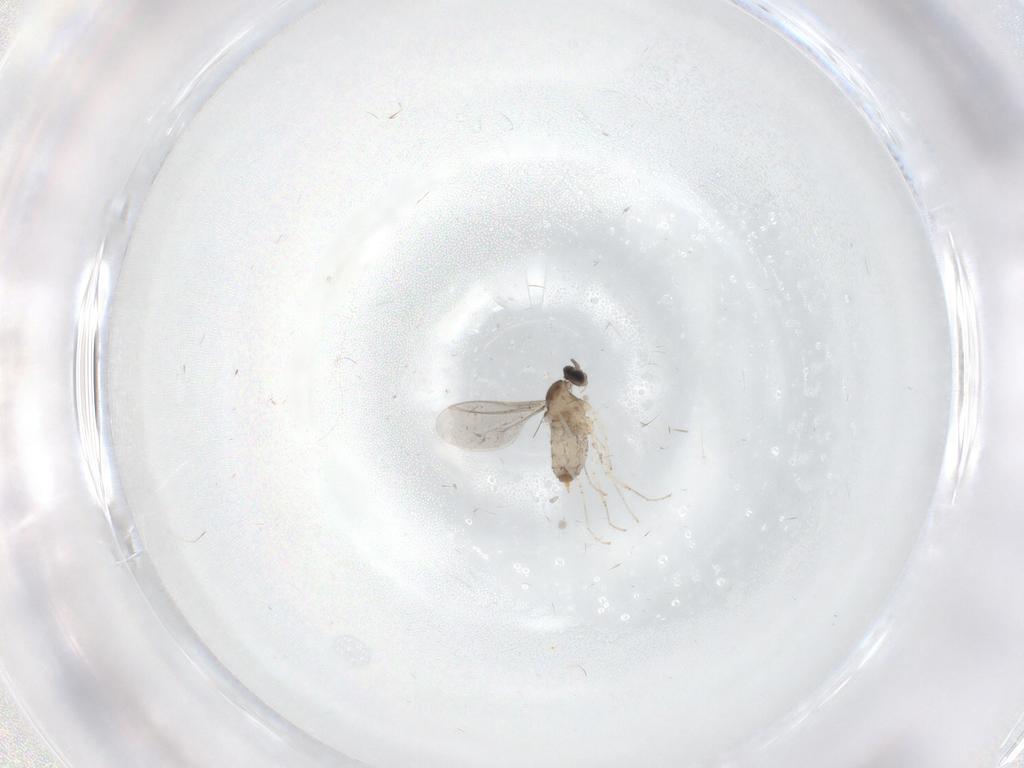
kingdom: Animalia
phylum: Arthropoda
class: Insecta
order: Diptera
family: Cecidomyiidae
